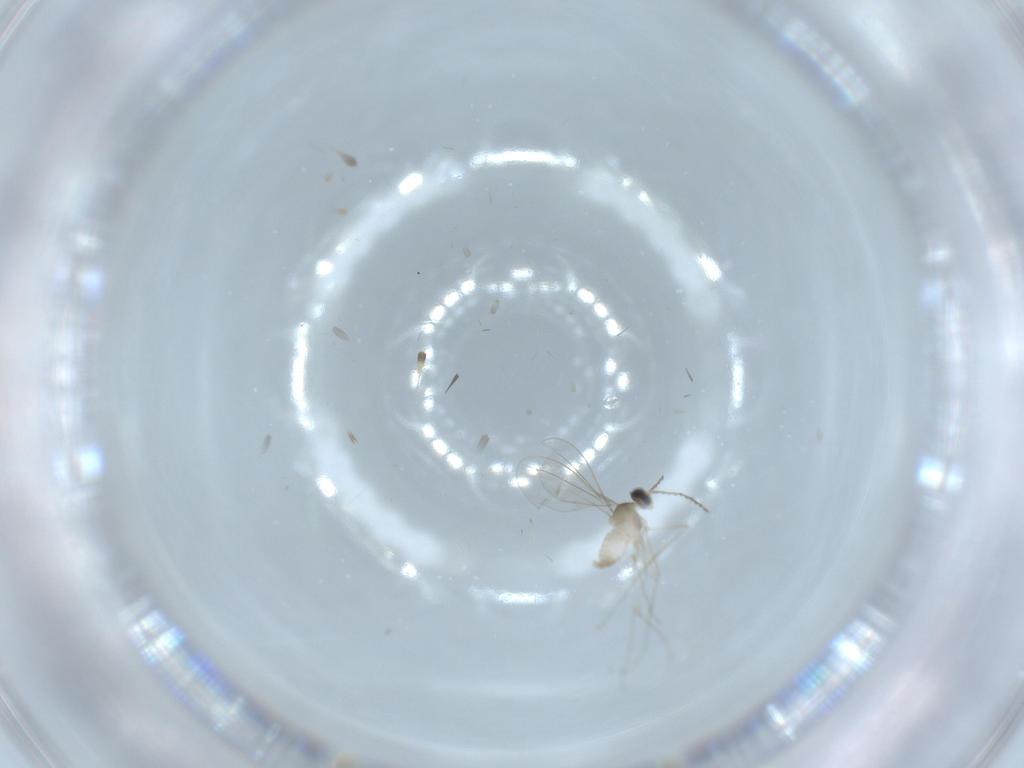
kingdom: Animalia
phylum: Arthropoda
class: Insecta
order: Diptera
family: Cecidomyiidae
